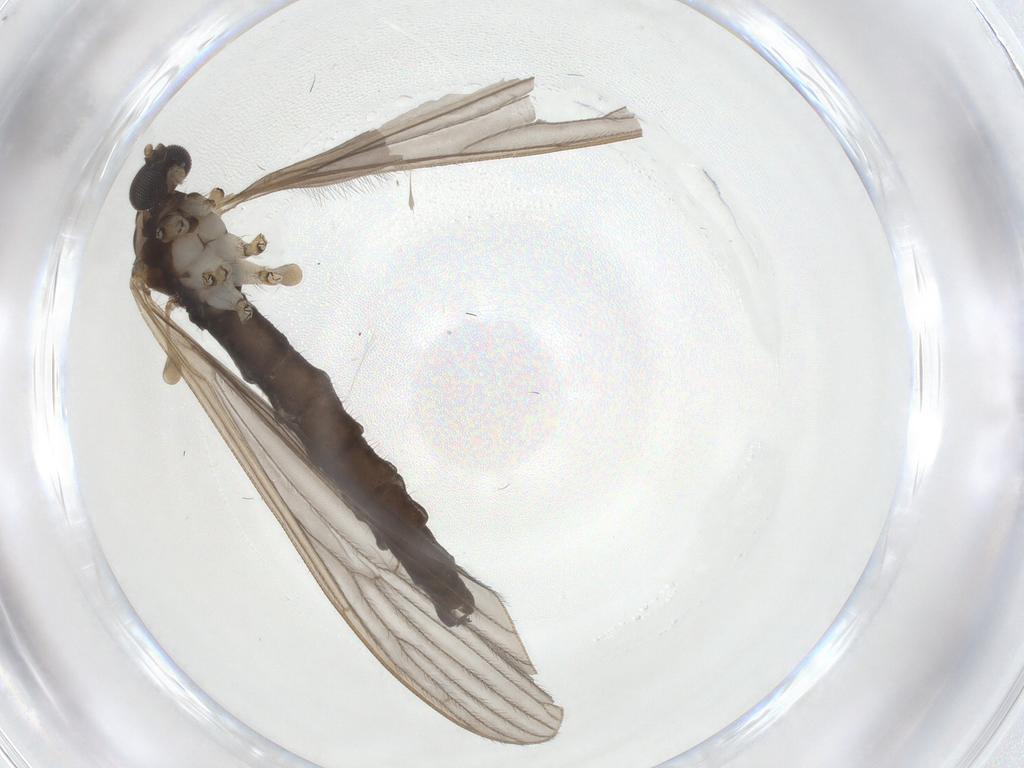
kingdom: Animalia
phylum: Arthropoda
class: Insecta
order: Diptera
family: Limoniidae
